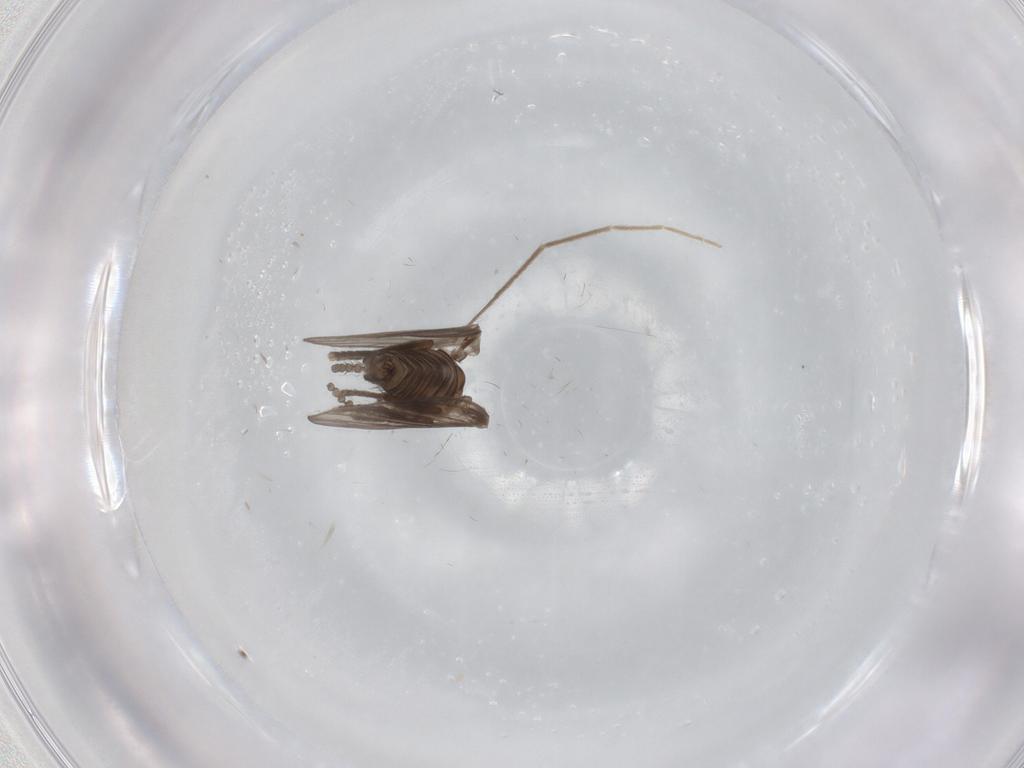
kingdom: Animalia
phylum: Arthropoda
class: Insecta
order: Diptera
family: Psychodidae
